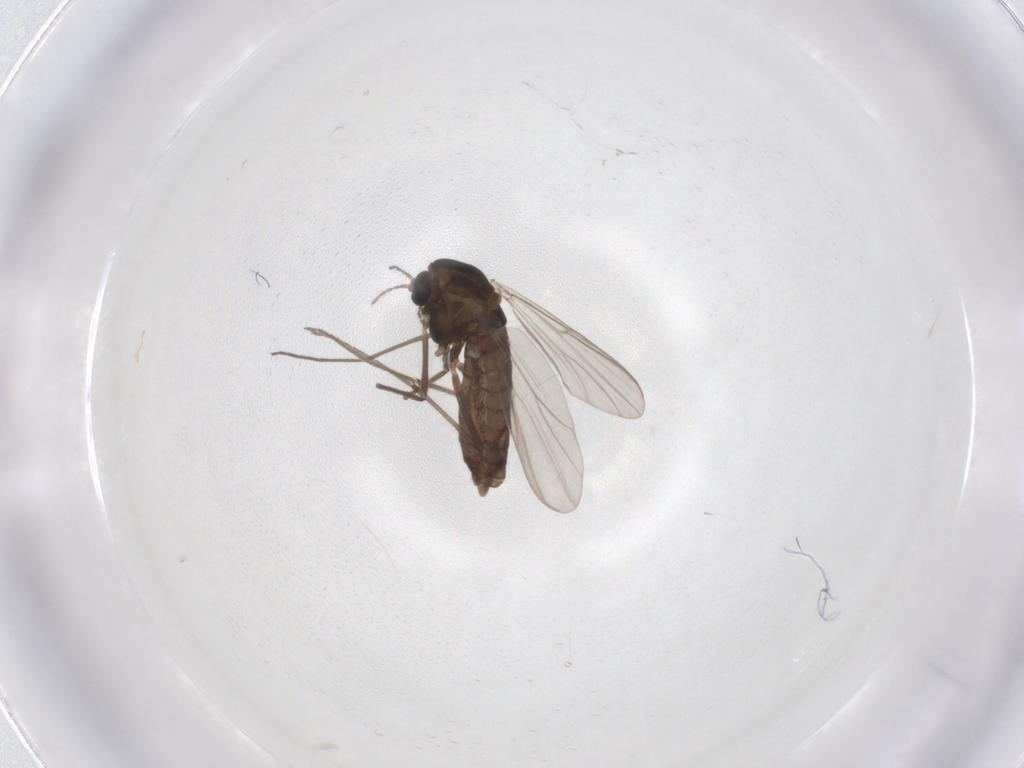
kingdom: Animalia
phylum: Arthropoda
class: Insecta
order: Diptera
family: Chironomidae
